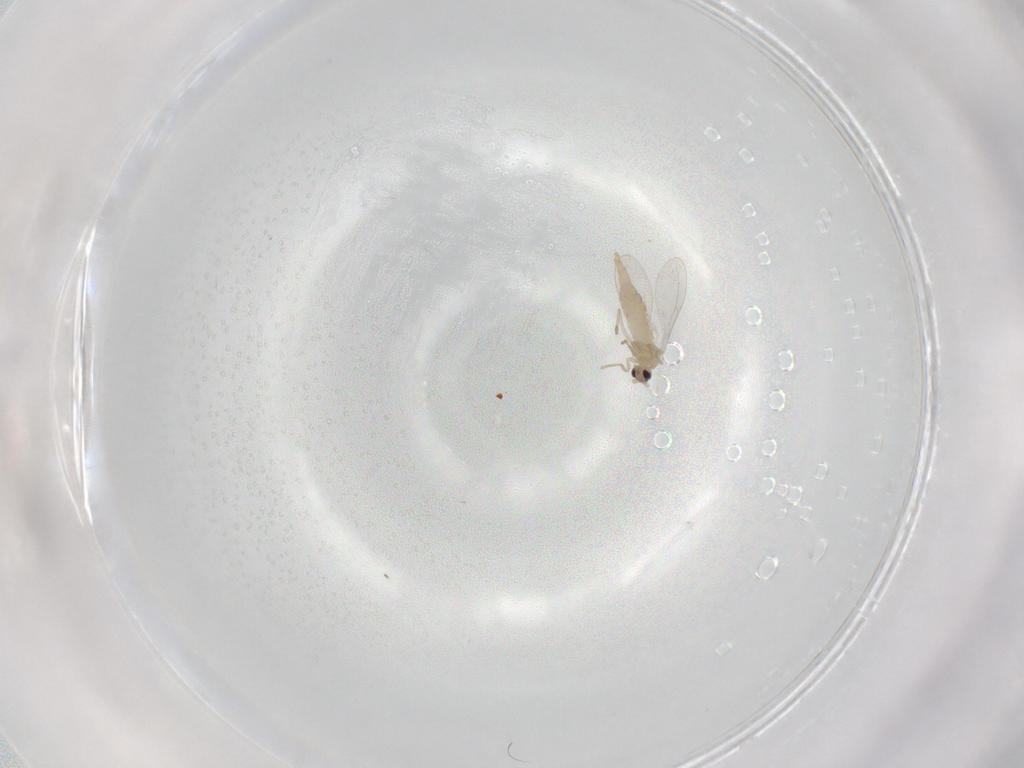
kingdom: Animalia
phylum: Arthropoda
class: Insecta
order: Diptera
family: Cecidomyiidae
